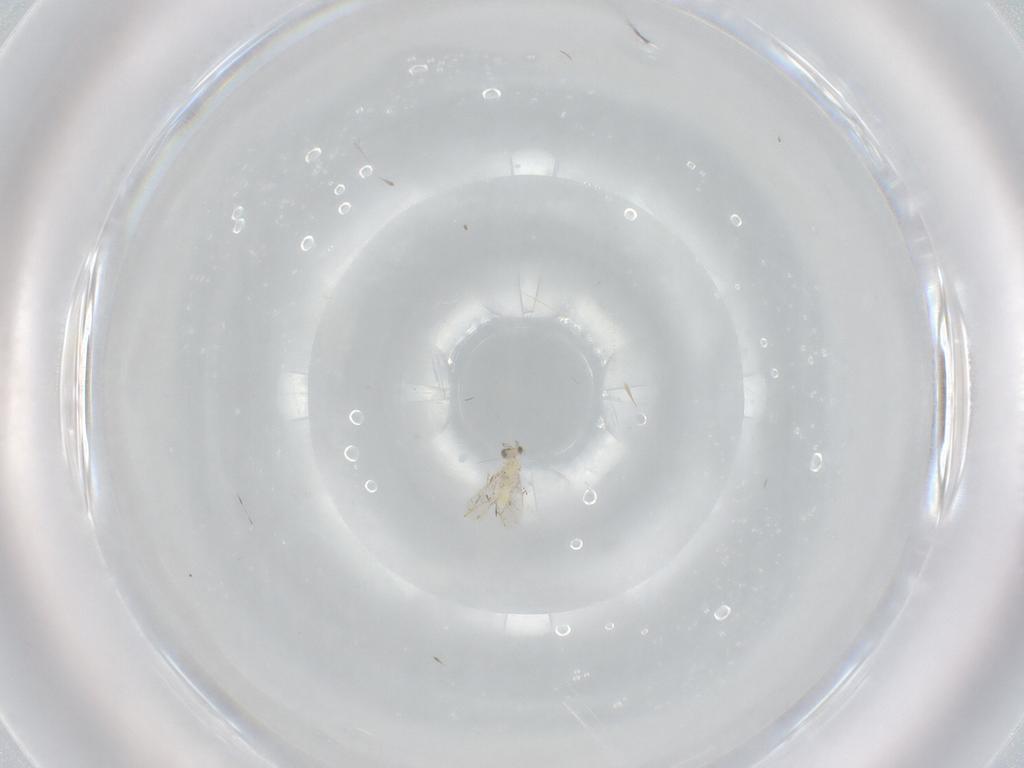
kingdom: Animalia
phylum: Arthropoda
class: Insecta
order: Hymenoptera
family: Aphelinidae
